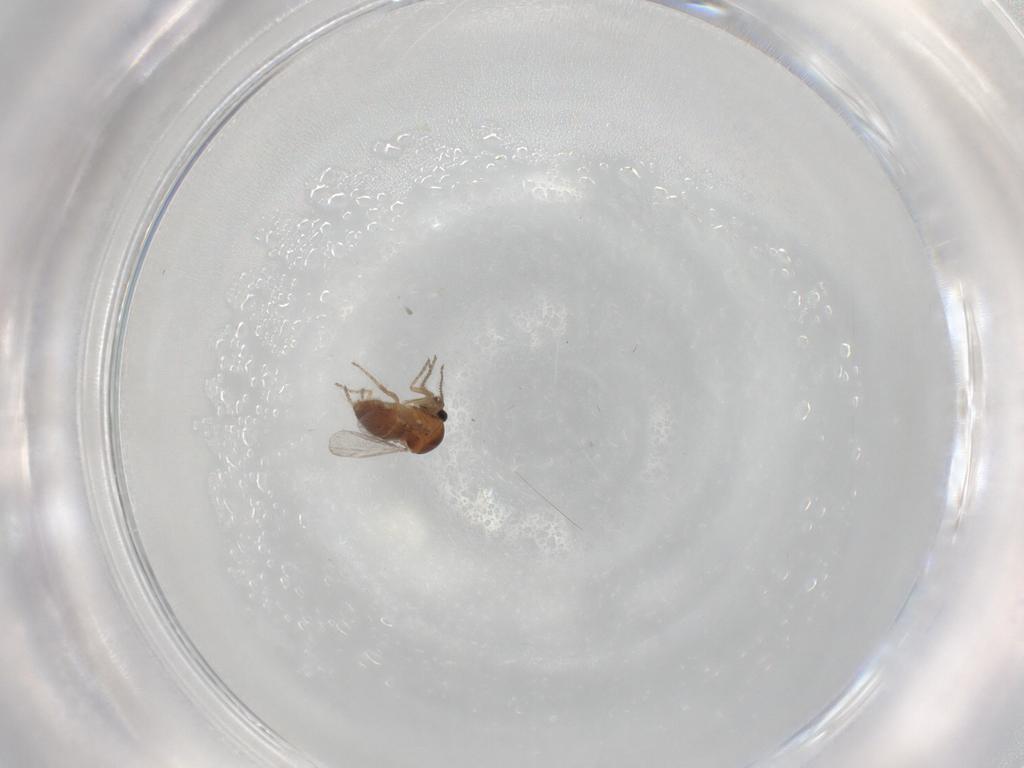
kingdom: Animalia
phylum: Arthropoda
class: Insecta
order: Diptera
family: Ceratopogonidae
